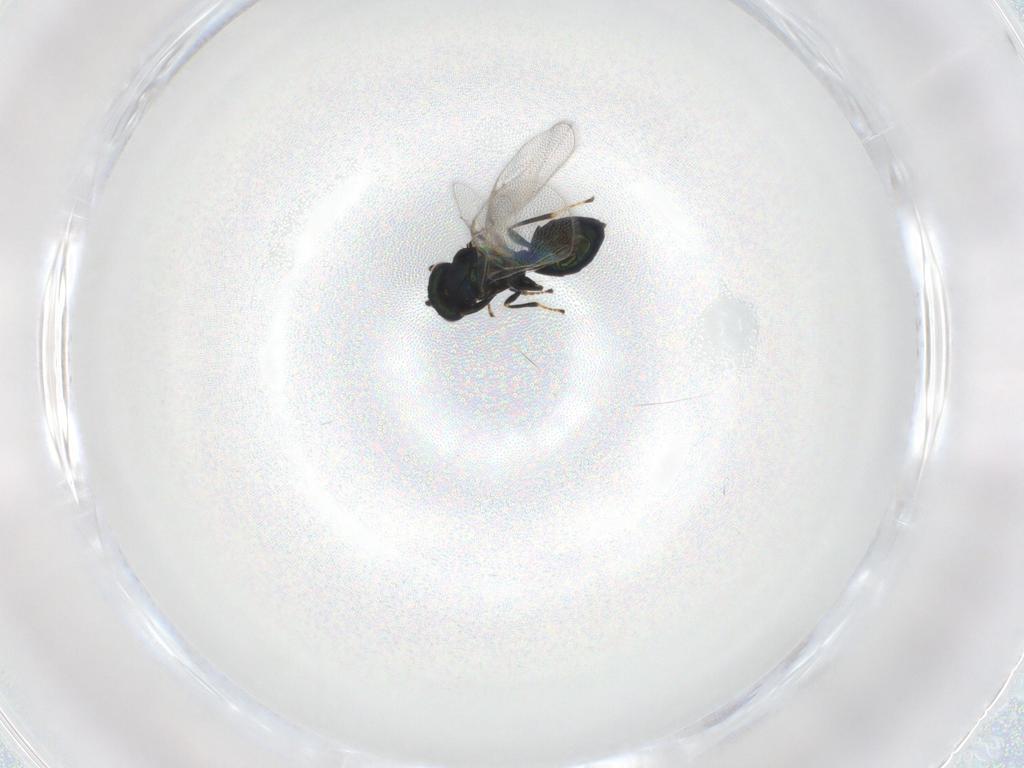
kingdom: Animalia
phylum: Arthropoda
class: Insecta
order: Hymenoptera
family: Pteromalidae
